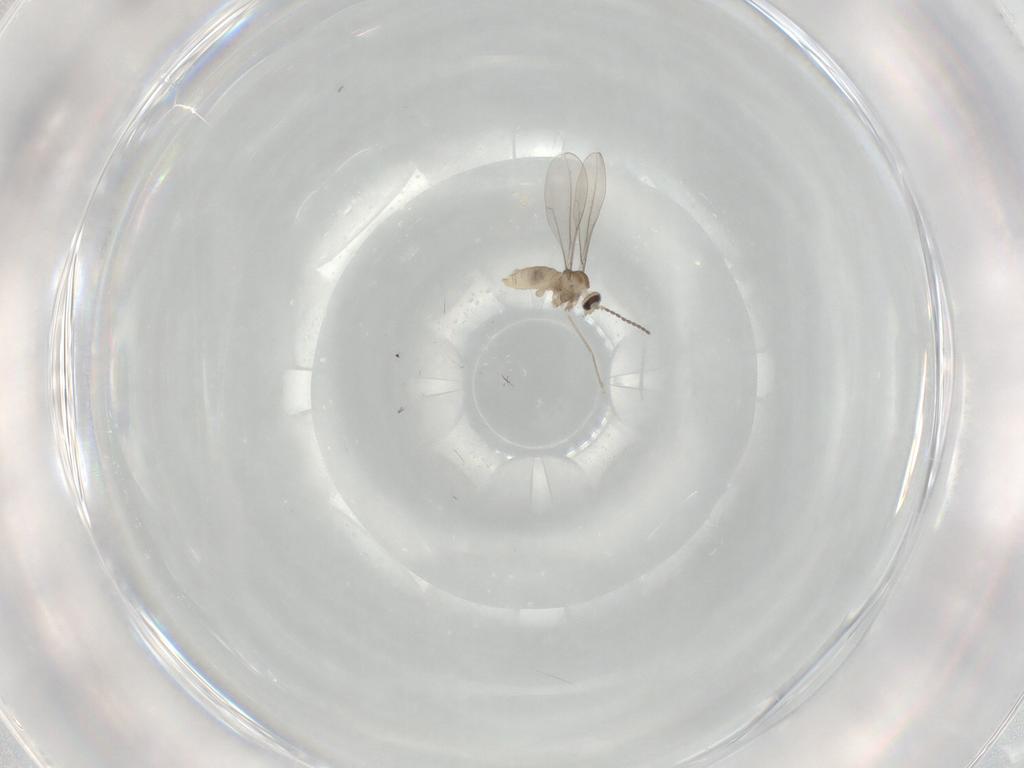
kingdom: Animalia
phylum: Arthropoda
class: Insecta
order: Diptera
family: Cecidomyiidae
